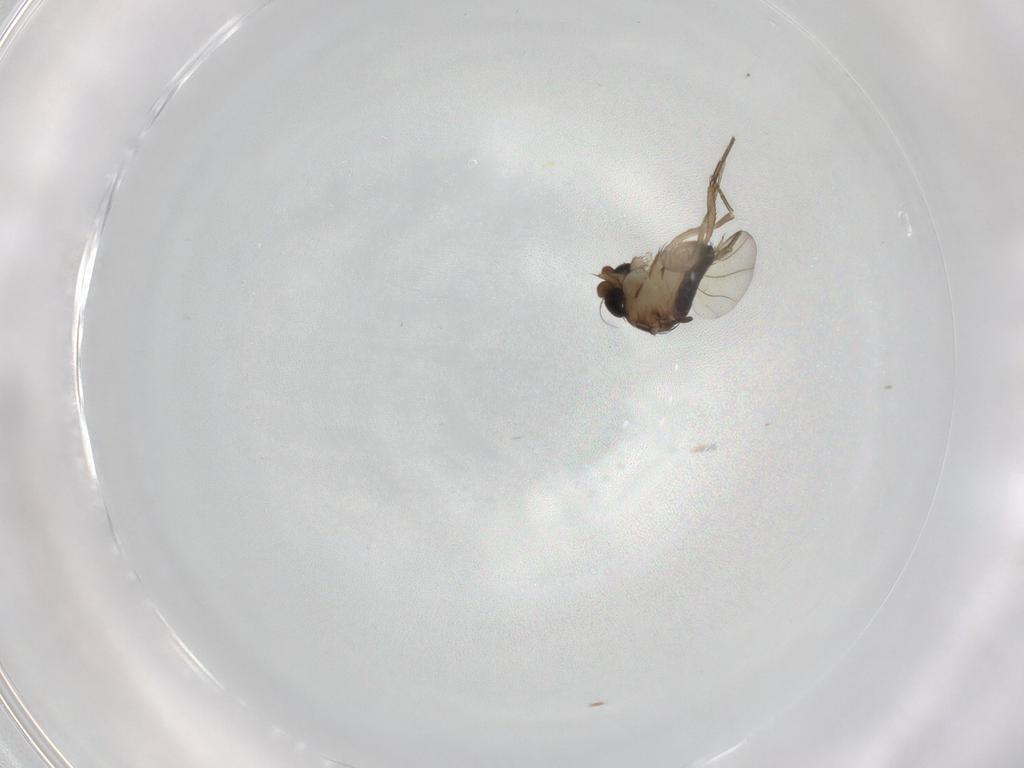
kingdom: Animalia
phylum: Arthropoda
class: Insecta
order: Diptera
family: Phoridae
